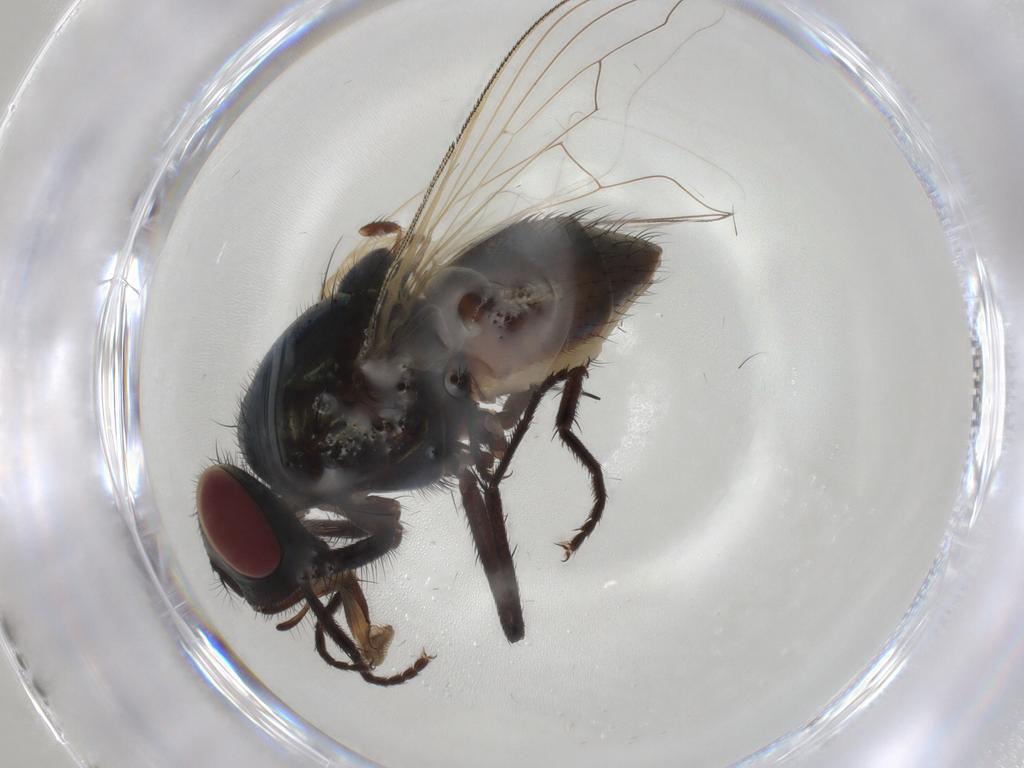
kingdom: Animalia
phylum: Arthropoda
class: Insecta
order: Diptera
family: Muscidae
